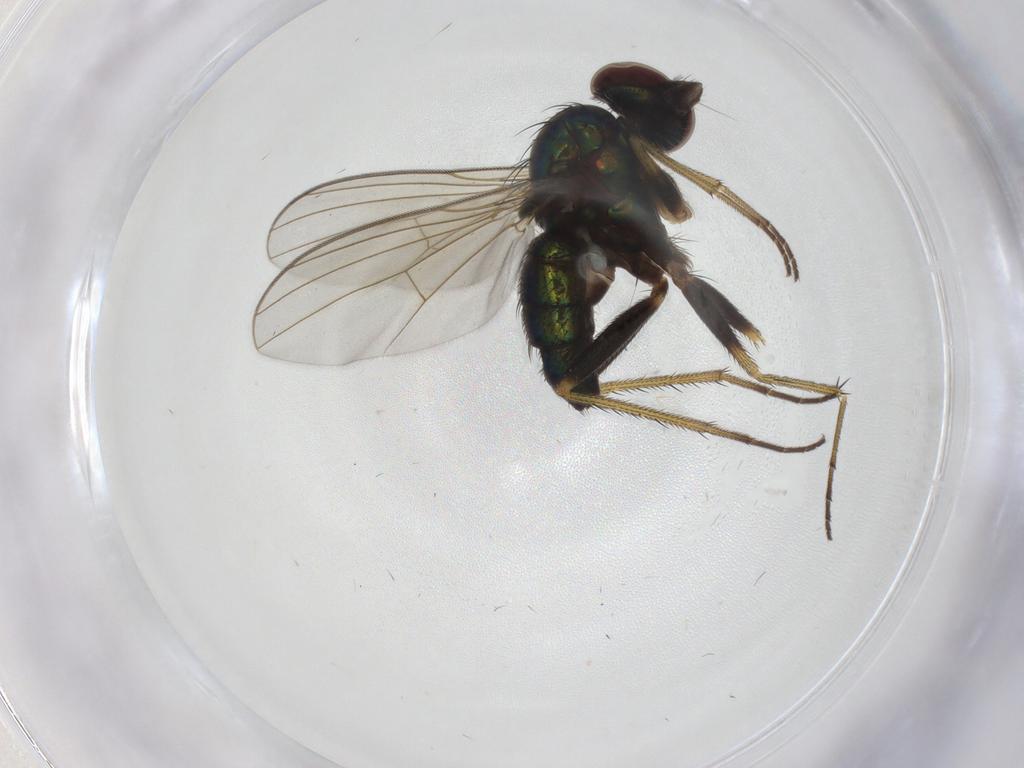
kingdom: Animalia
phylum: Arthropoda
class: Insecta
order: Diptera
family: Dolichopodidae
